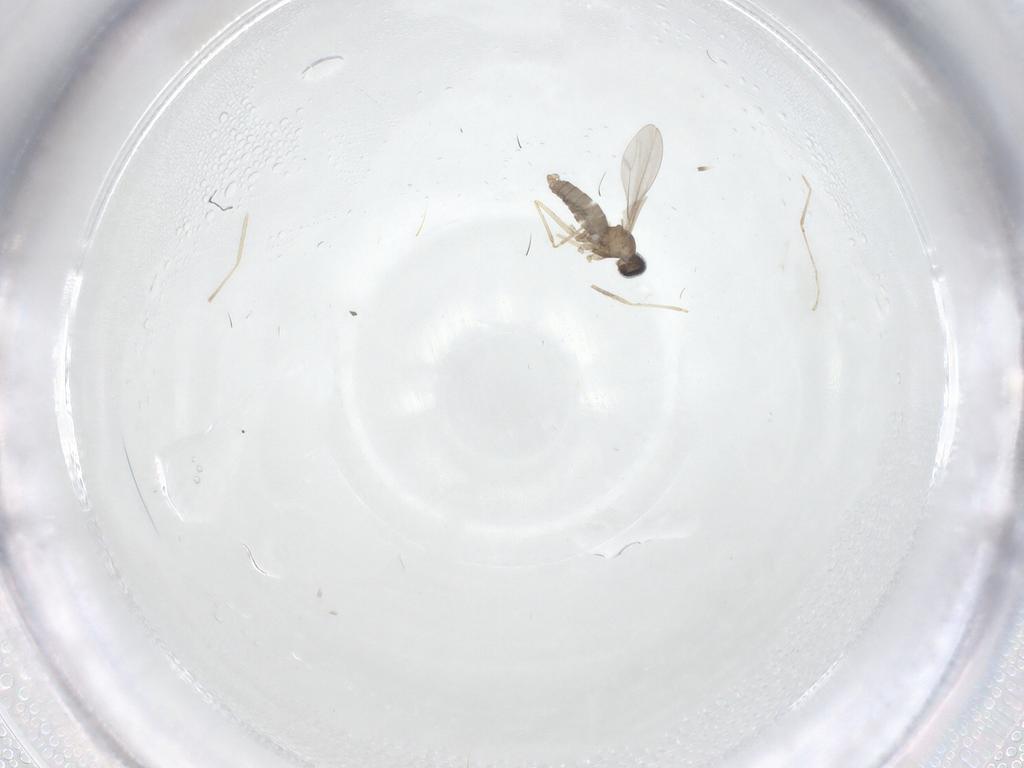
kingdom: Animalia
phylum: Arthropoda
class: Insecta
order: Diptera
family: Cecidomyiidae
